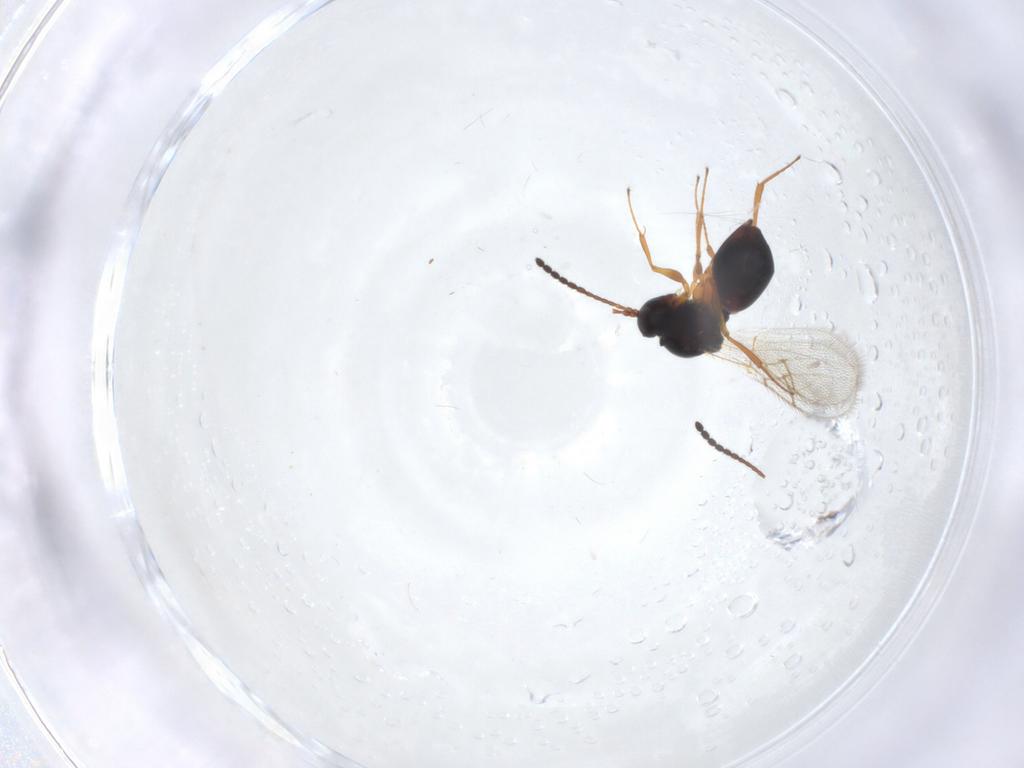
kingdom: Animalia
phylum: Arthropoda
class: Insecta
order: Hymenoptera
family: Figitidae
